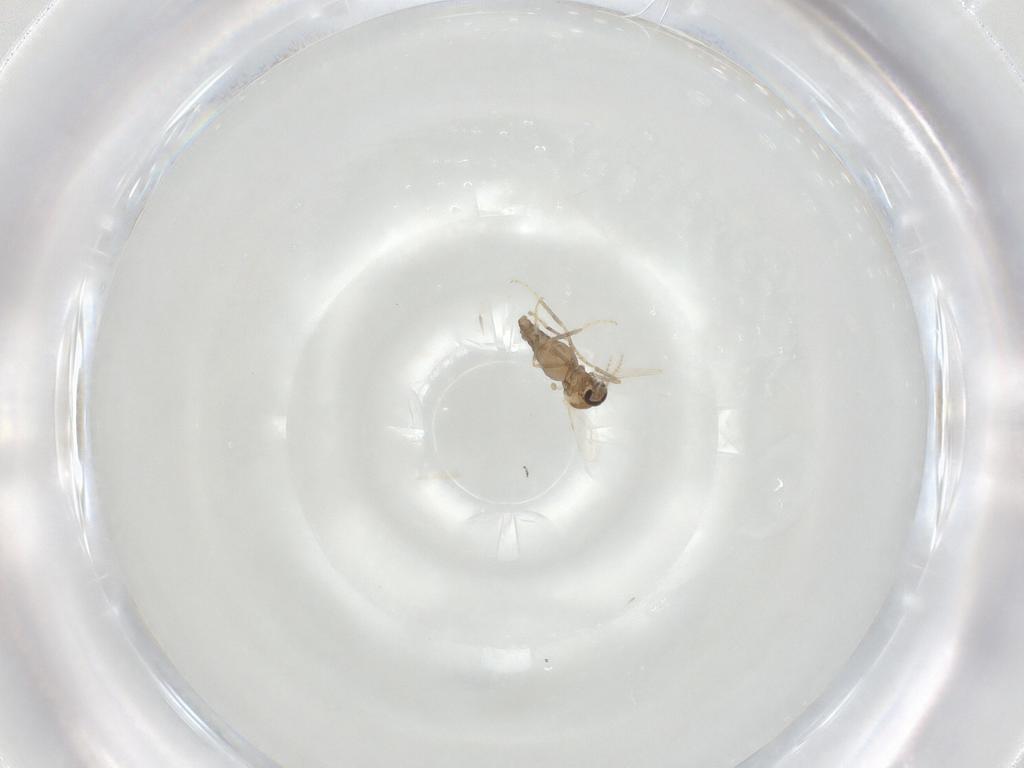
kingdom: Animalia
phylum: Arthropoda
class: Insecta
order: Diptera
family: Ceratopogonidae
